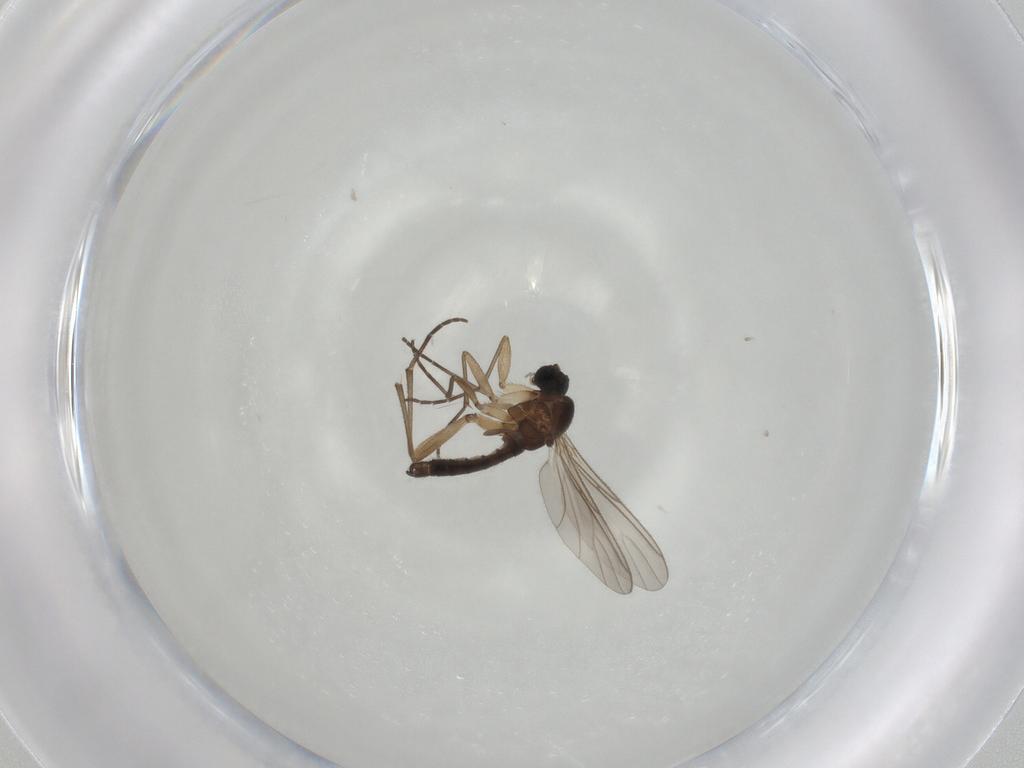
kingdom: Animalia
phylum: Arthropoda
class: Insecta
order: Diptera
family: Sciaridae
